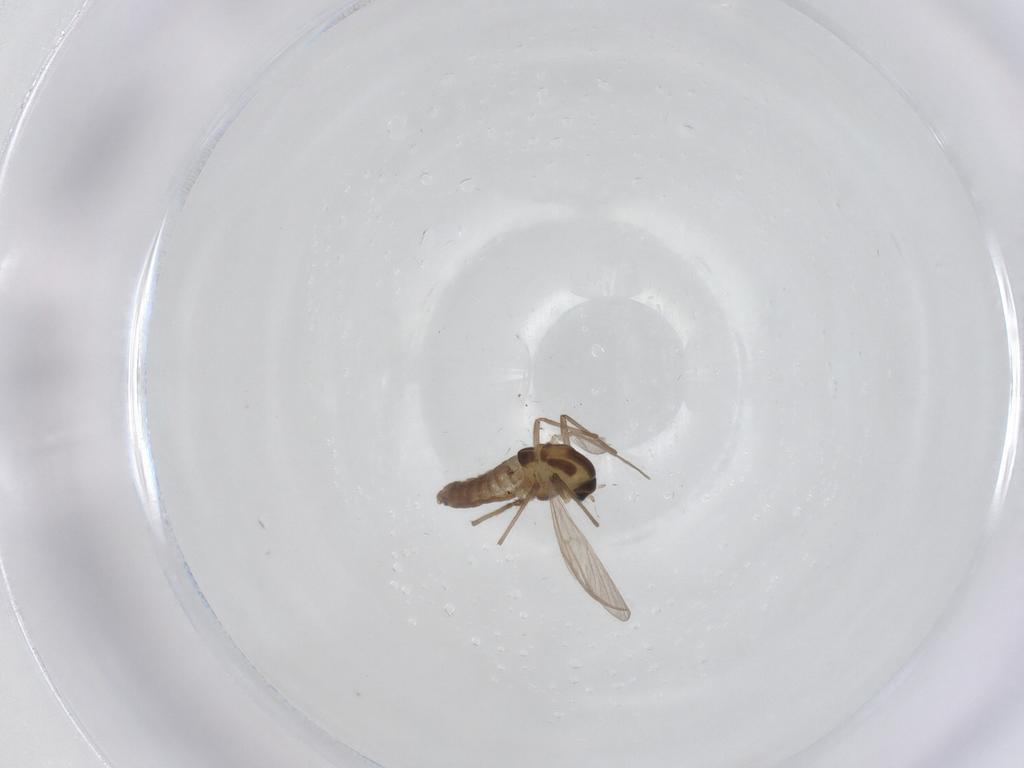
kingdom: Animalia
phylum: Arthropoda
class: Insecta
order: Diptera
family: Chironomidae
